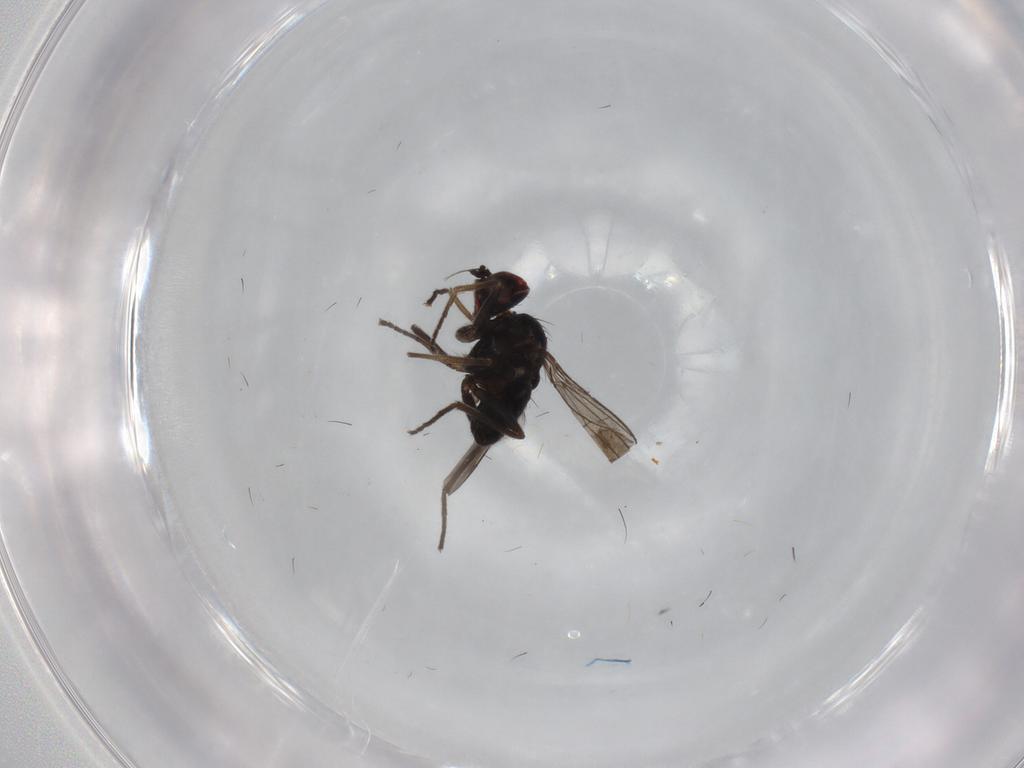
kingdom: Animalia
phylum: Arthropoda
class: Insecta
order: Diptera
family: Dolichopodidae
